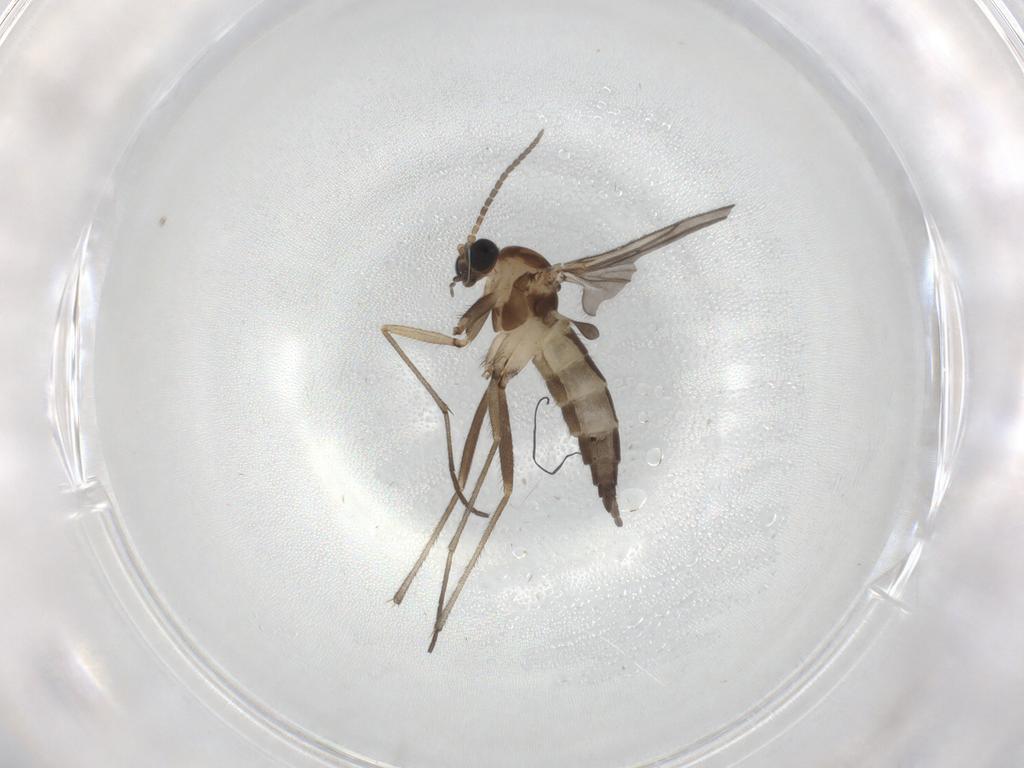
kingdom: Animalia
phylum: Arthropoda
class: Insecta
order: Diptera
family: Sciaridae
